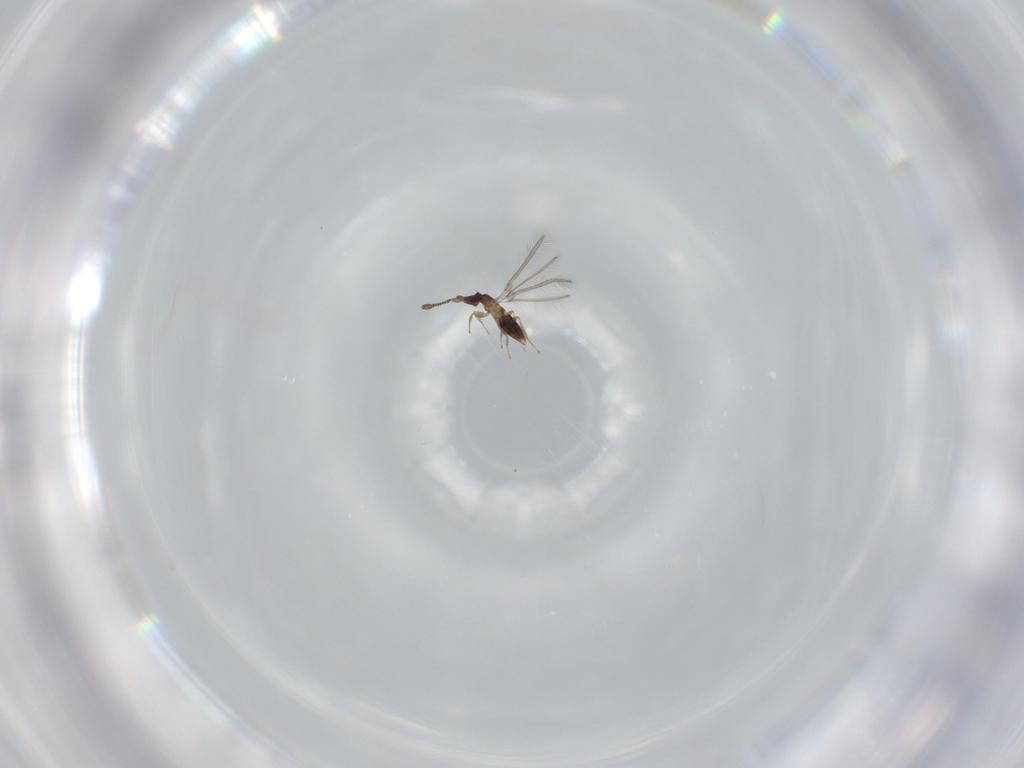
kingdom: Animalia
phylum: Arthropoda
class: Insecta
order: Hymenoptera
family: Mymaridae
